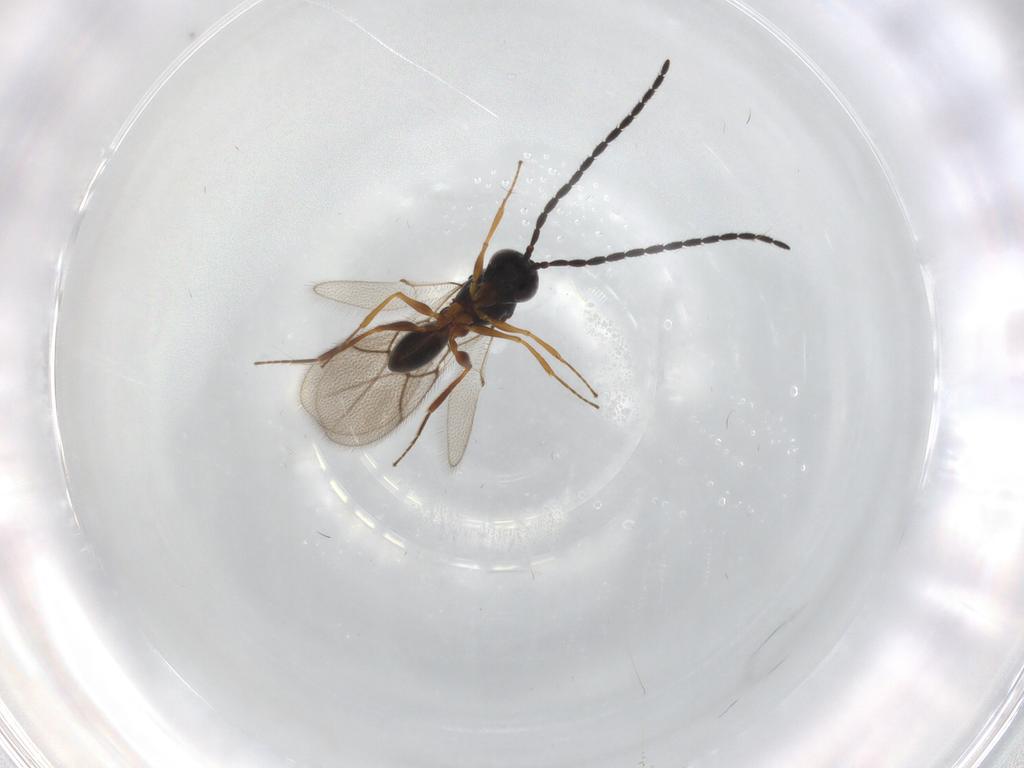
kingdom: Animalia
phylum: Arthropoda
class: Insecta
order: Hymenoptera
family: Figitidae
